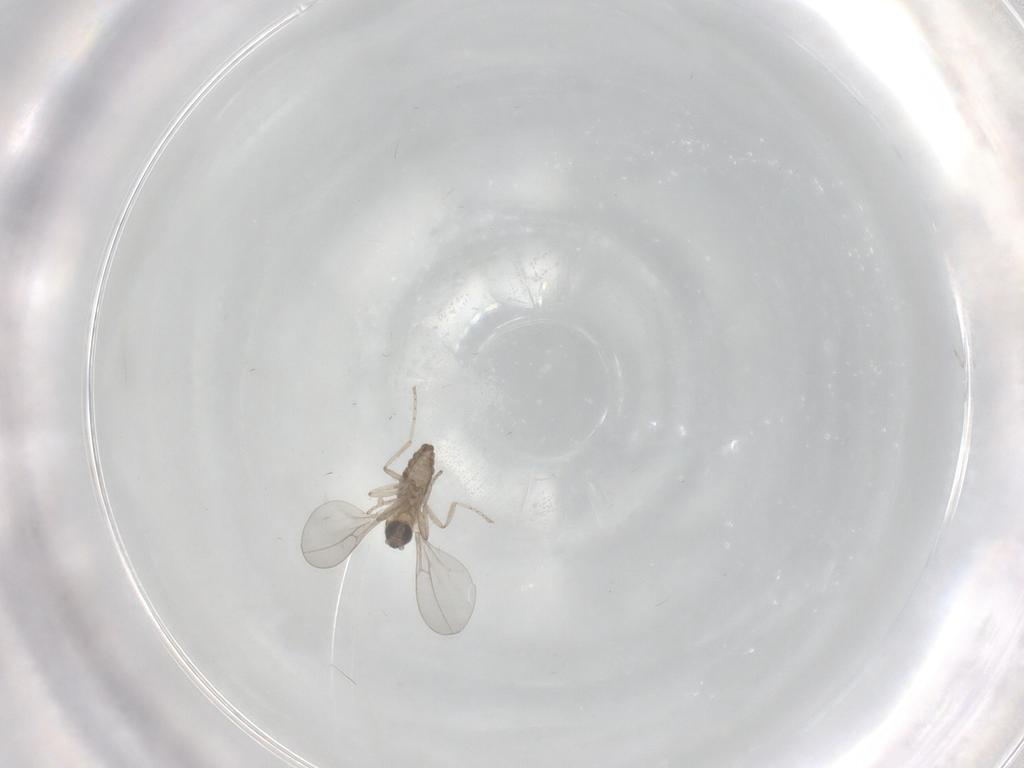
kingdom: Animalia
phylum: Arthropoda
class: Insecta
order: Diptera
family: Cecidomyiidae
